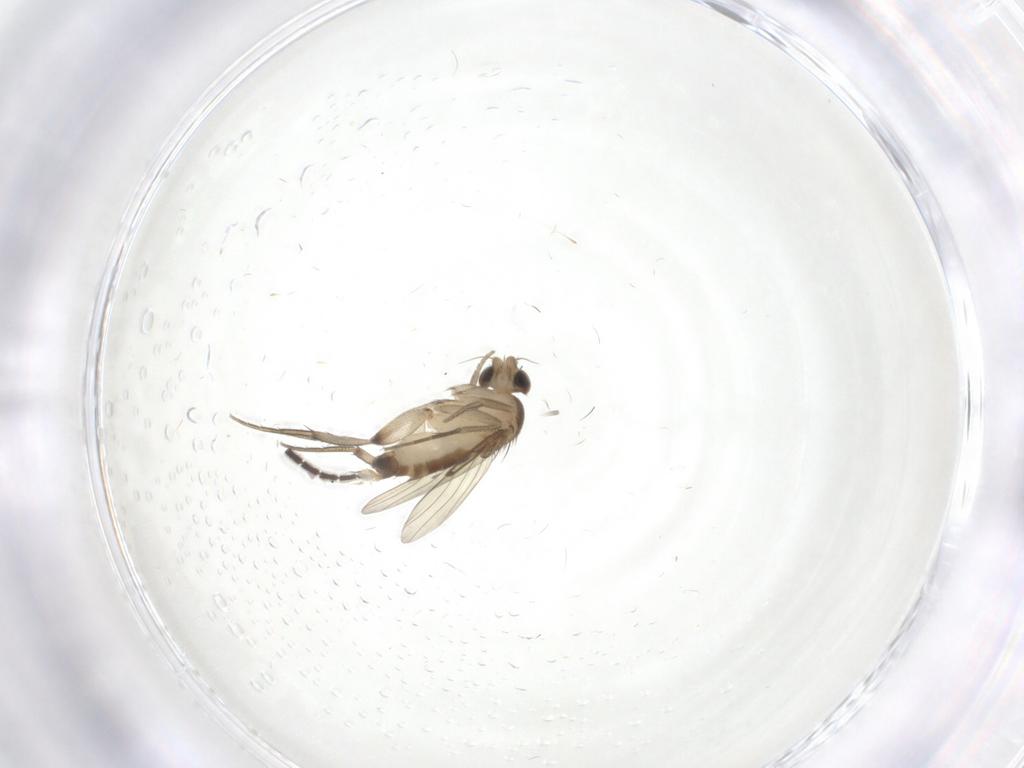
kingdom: Animalia
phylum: Arthropoda
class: Insecta
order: Diptera
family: Phoridae
